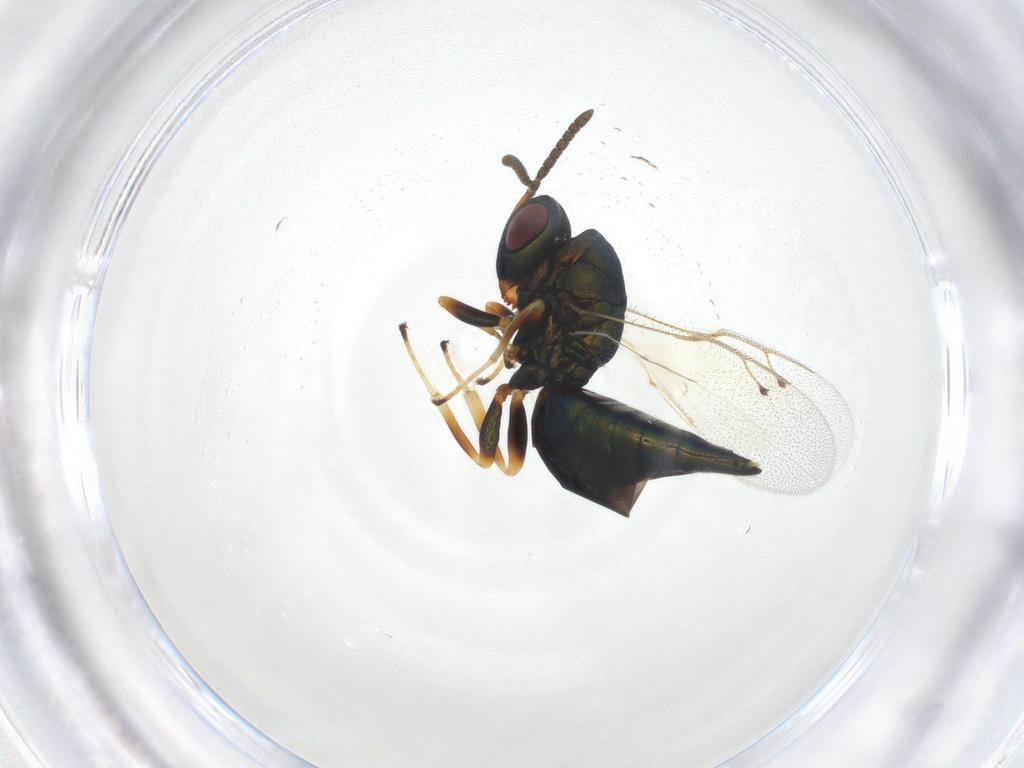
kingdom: Animalia
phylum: Arthropoda
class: Insecta
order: Hymenoptera
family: Pteromalidae
